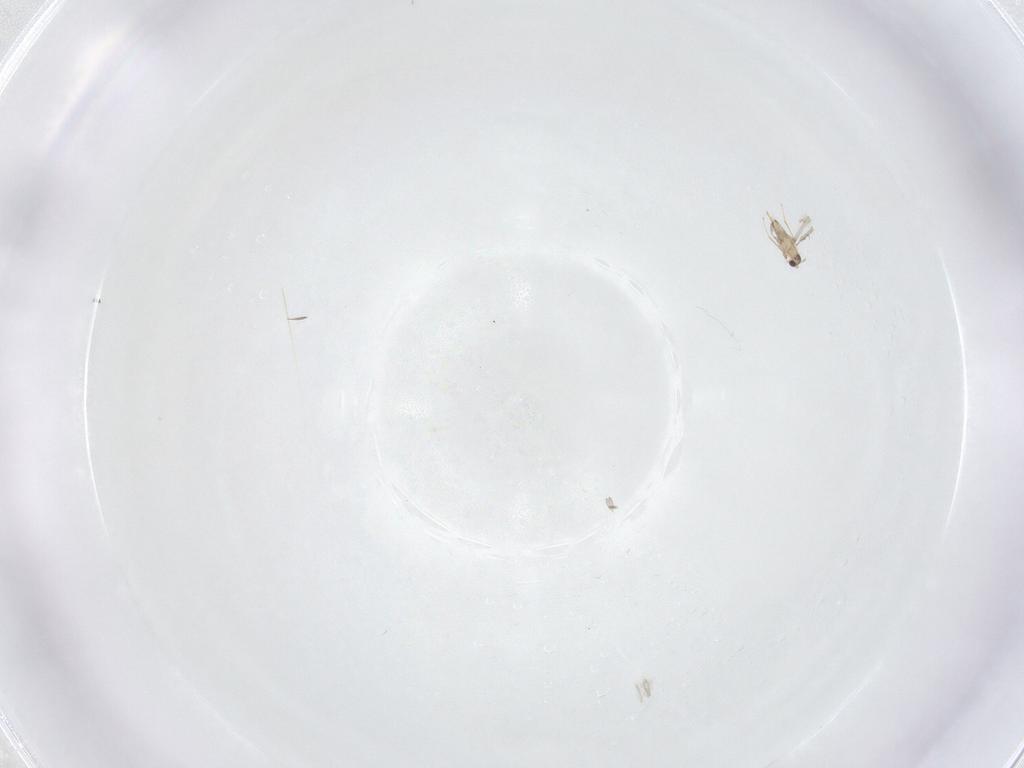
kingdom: Animalia
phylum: Arthropoda
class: Insecta
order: Hymenoptera
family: Mymaridae
